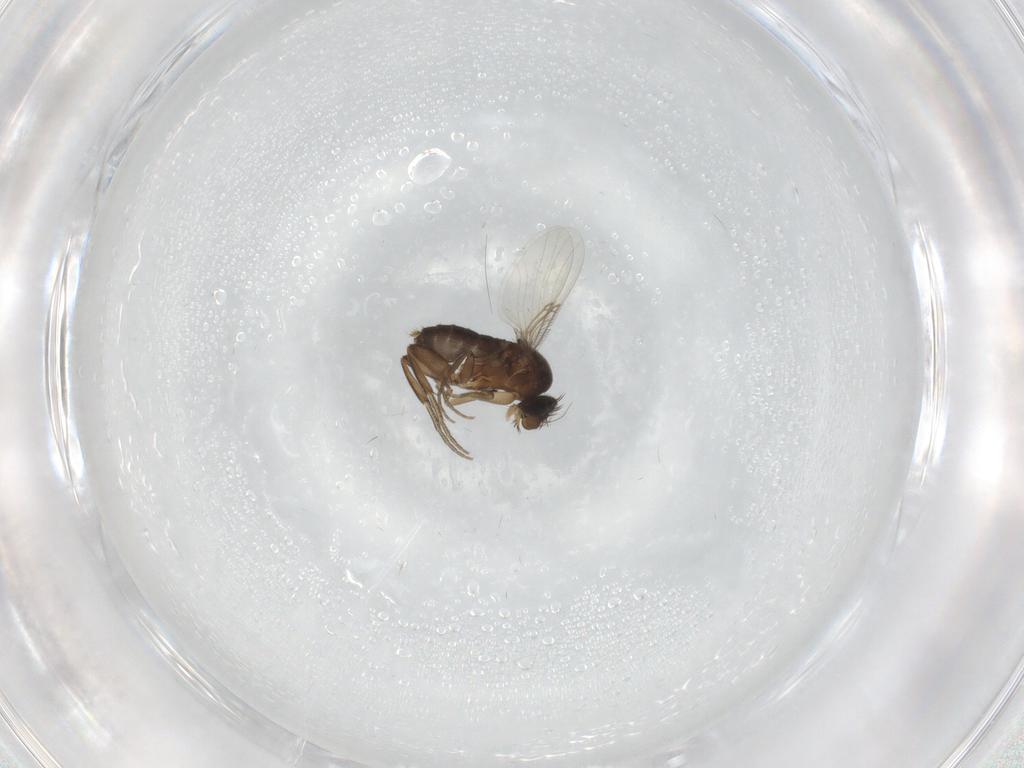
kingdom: Animalia
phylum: Arthropoda
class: Insecta
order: Diptera
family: Phoridae
